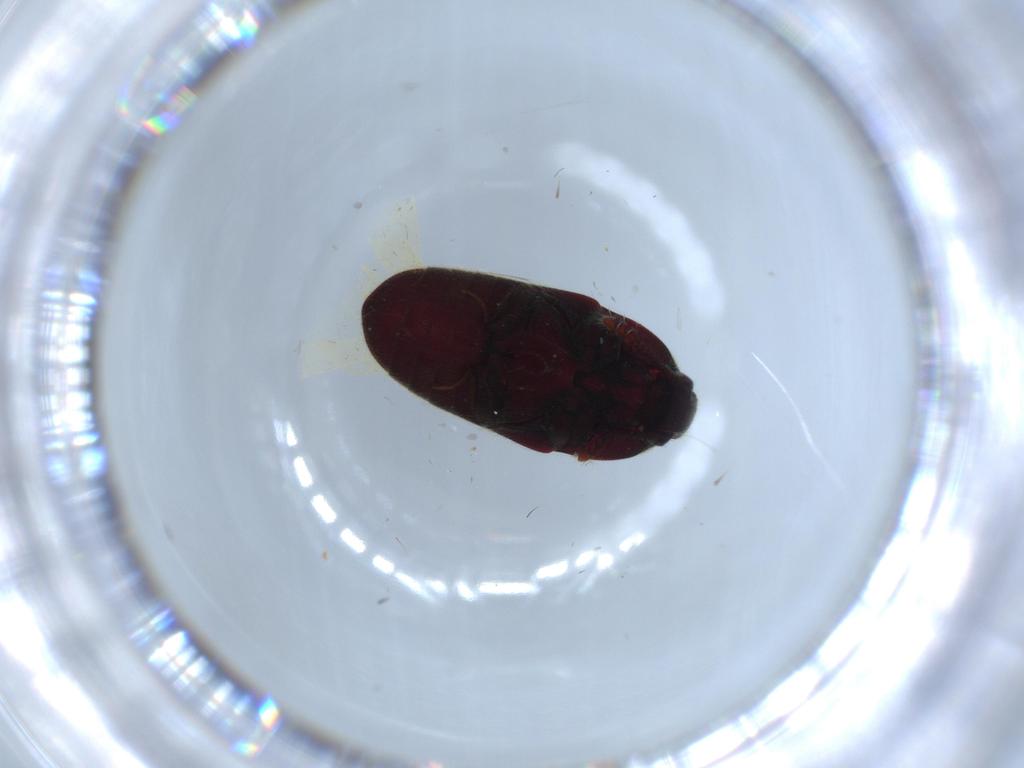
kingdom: Animalia
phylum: Arthropoda
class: Insecta
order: Coleoptera
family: Throscidae
